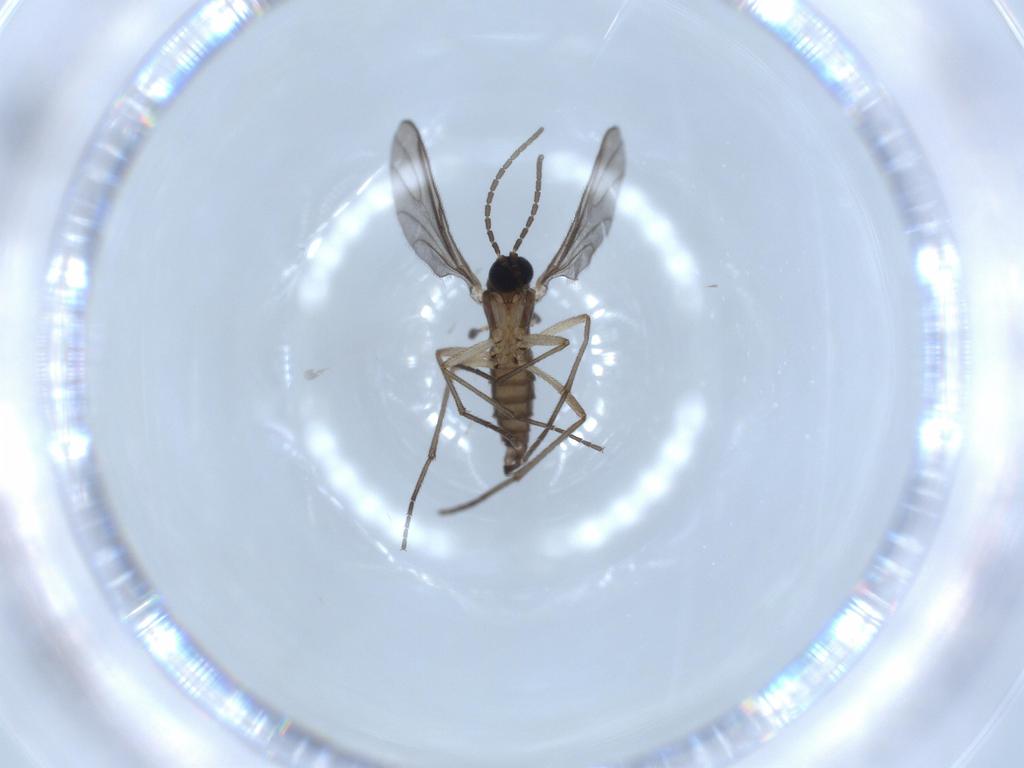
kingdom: Animalia
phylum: Arthropoda
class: Insecta
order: Diptera
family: Sciaridae
